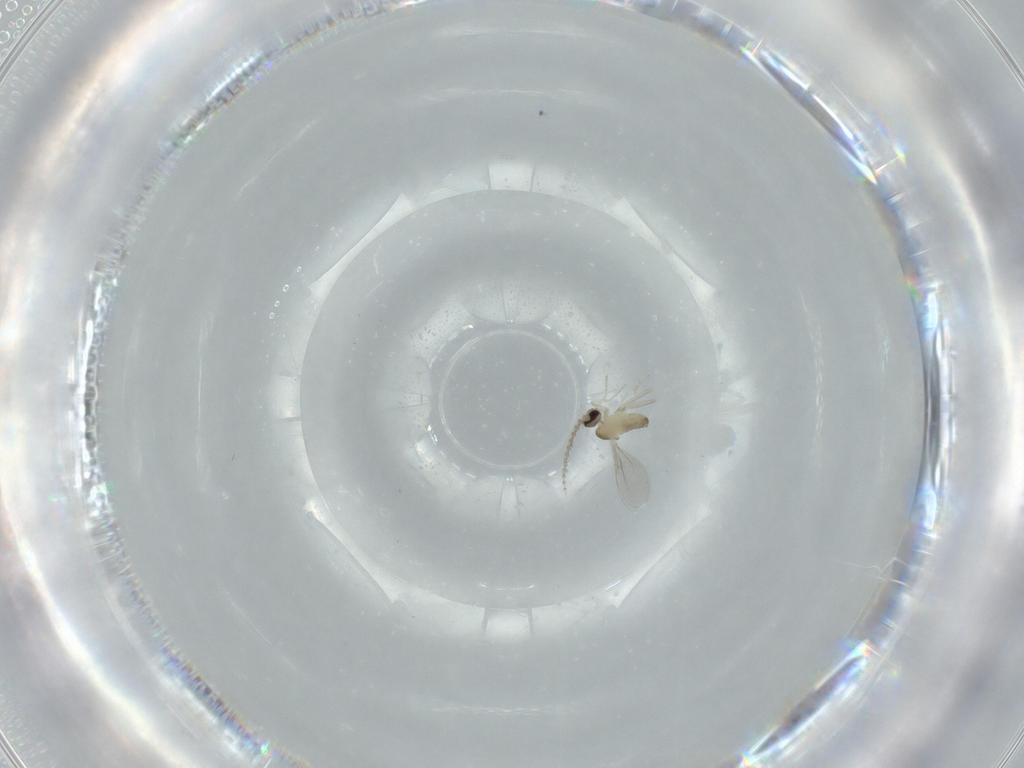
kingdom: Animalia
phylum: Arthropoda
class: Insecta
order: Diptera
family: Cecidomyiidae
